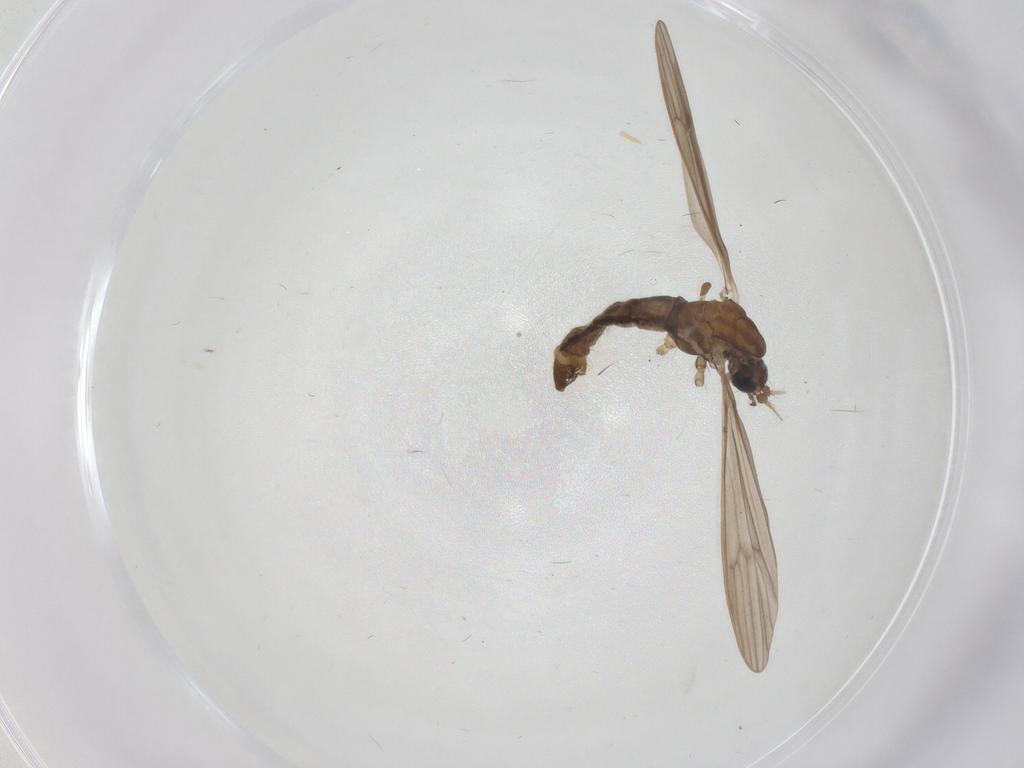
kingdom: Animalia
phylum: Arthropoda
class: Insecta
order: Diptera
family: Limoniidae
